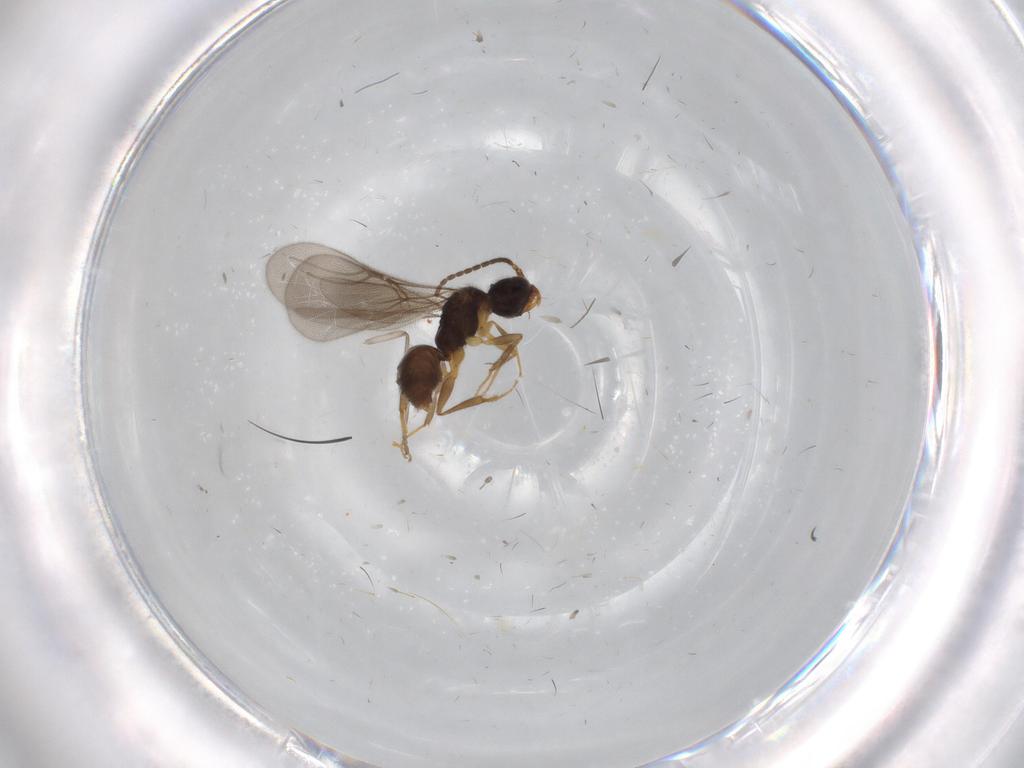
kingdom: Animalia
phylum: Arthropoda
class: Insecta
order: Hymenoptera
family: Bethylidae
